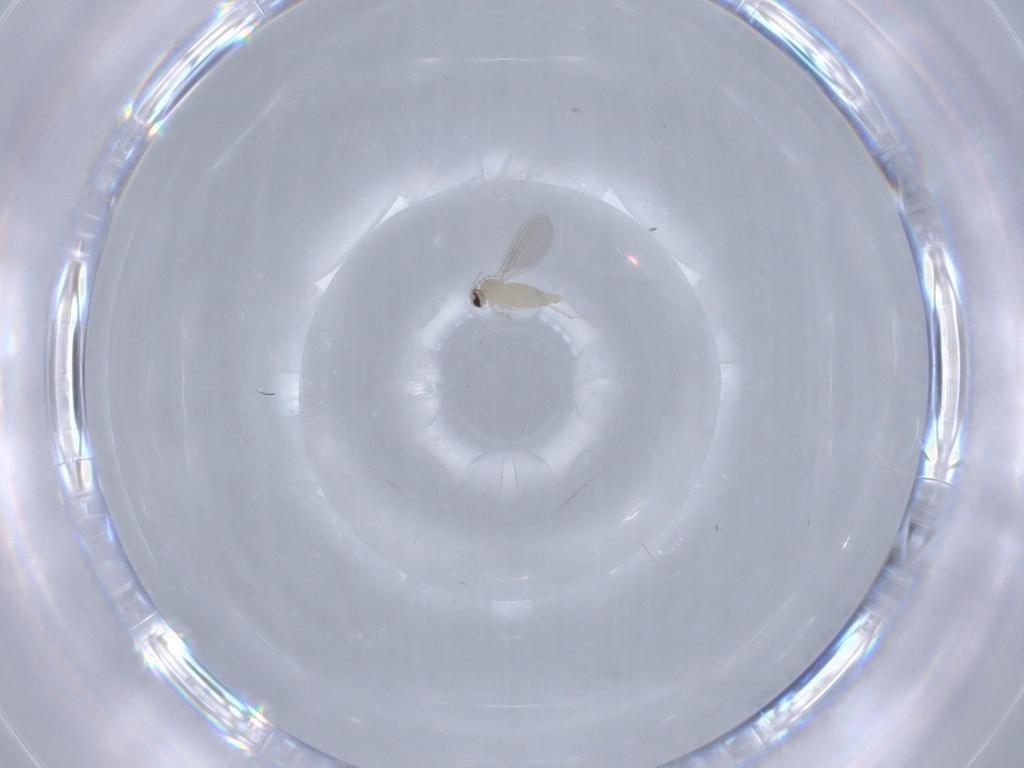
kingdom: Animalia
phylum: Arthropoda
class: Insecta
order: Diptera
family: Cecidomyiidae
